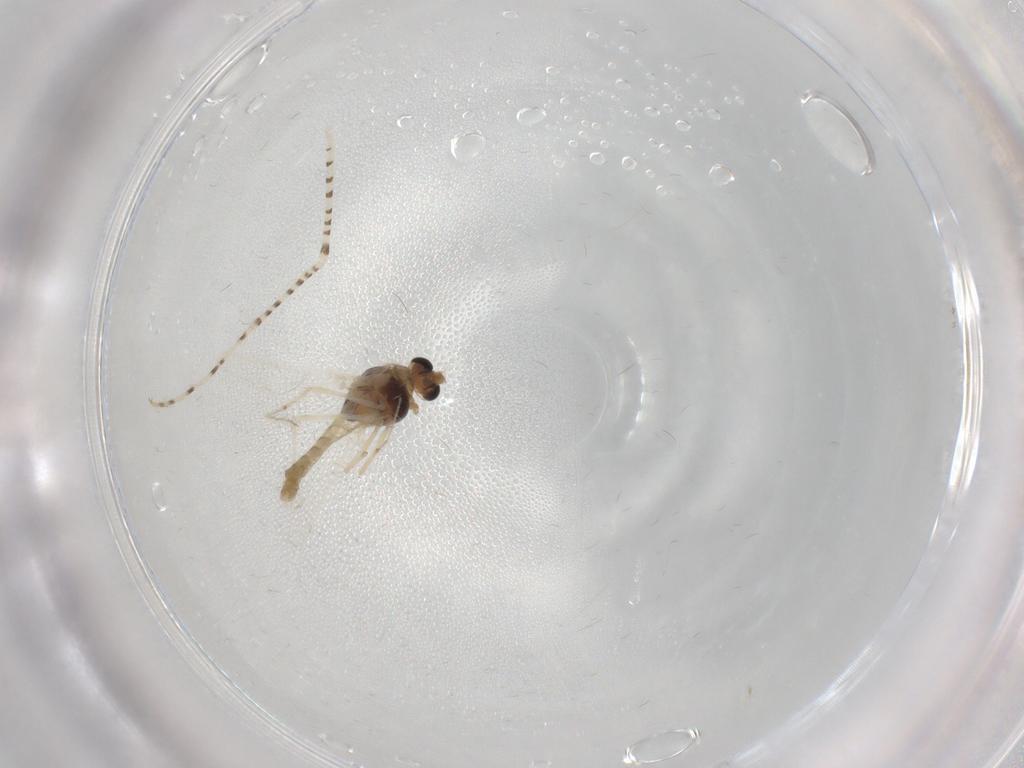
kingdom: Animalia
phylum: Arthropoda
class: Insecta
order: Diptera
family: Chironomidae
